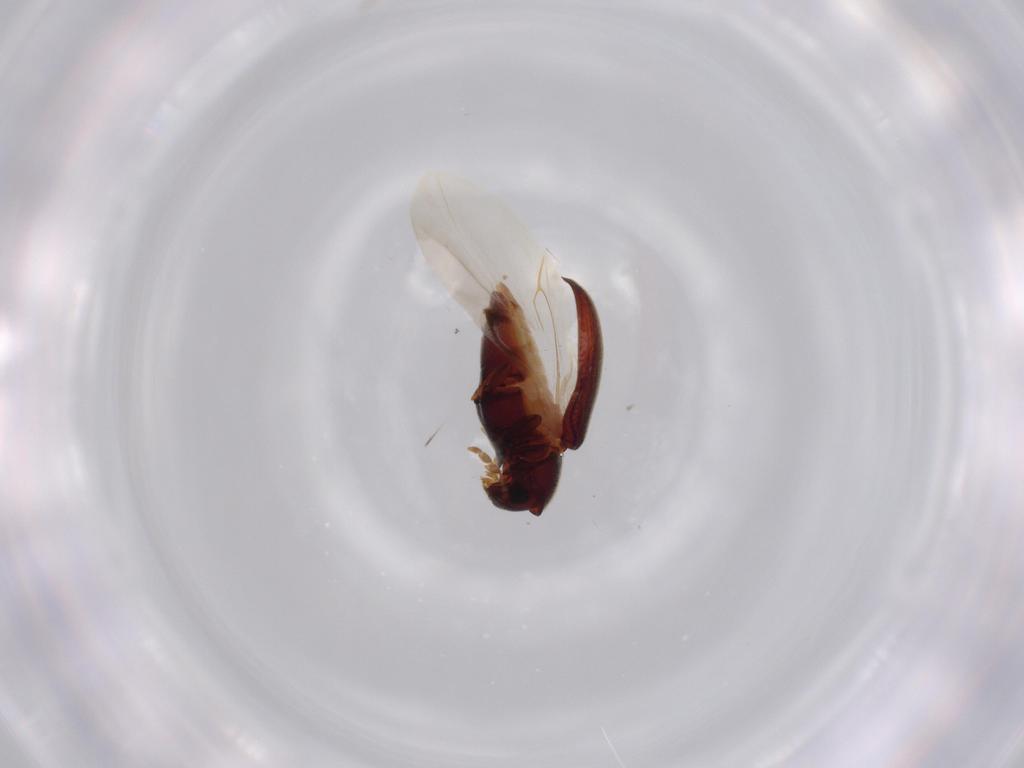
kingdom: Animalia
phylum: Arthropoda
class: Insecta
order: Coleoptera
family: Ptinidae
